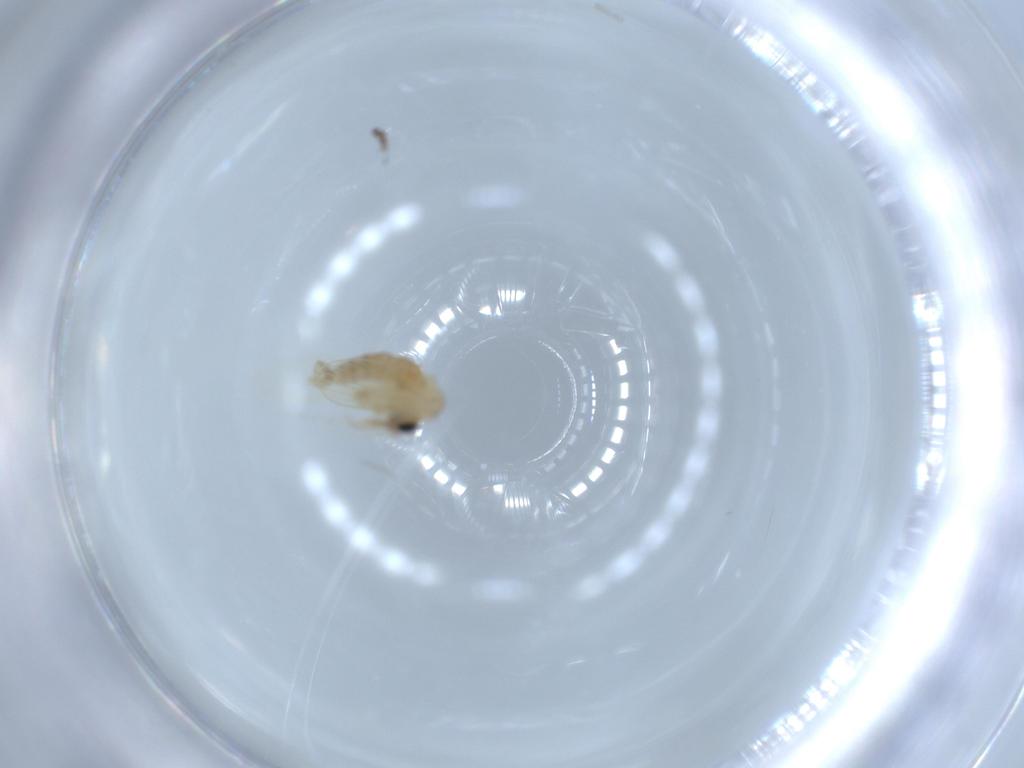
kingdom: Animalia
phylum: Arthropoda
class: Insecta
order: Diptera
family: Psychodidae
